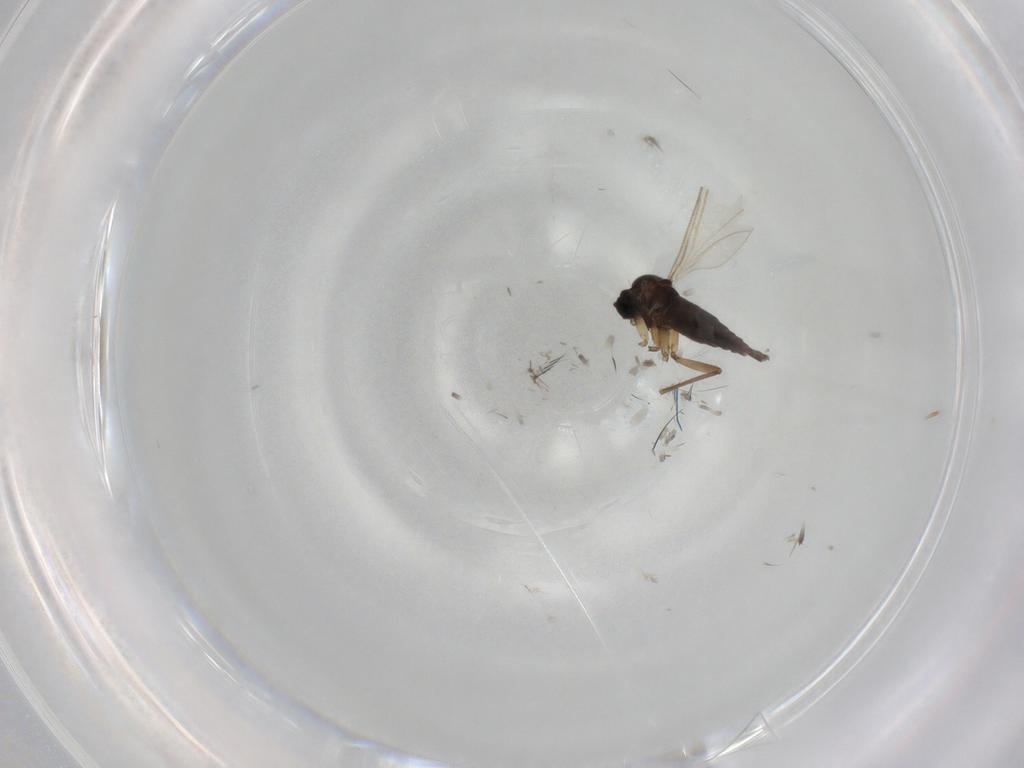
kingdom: Animalia
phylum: Arthropoda
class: Insecta
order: Diptera
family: Sciaridae
